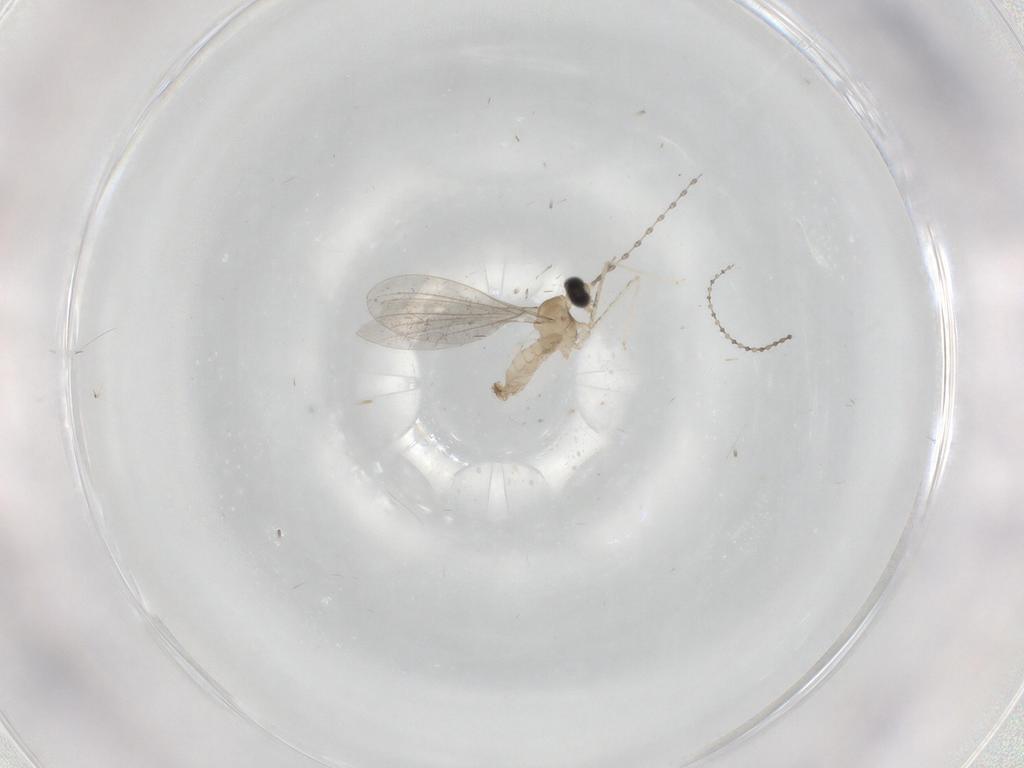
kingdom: Animalia
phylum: Arthropoda
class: Insecta
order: Diptera
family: Cecidomyiidae
